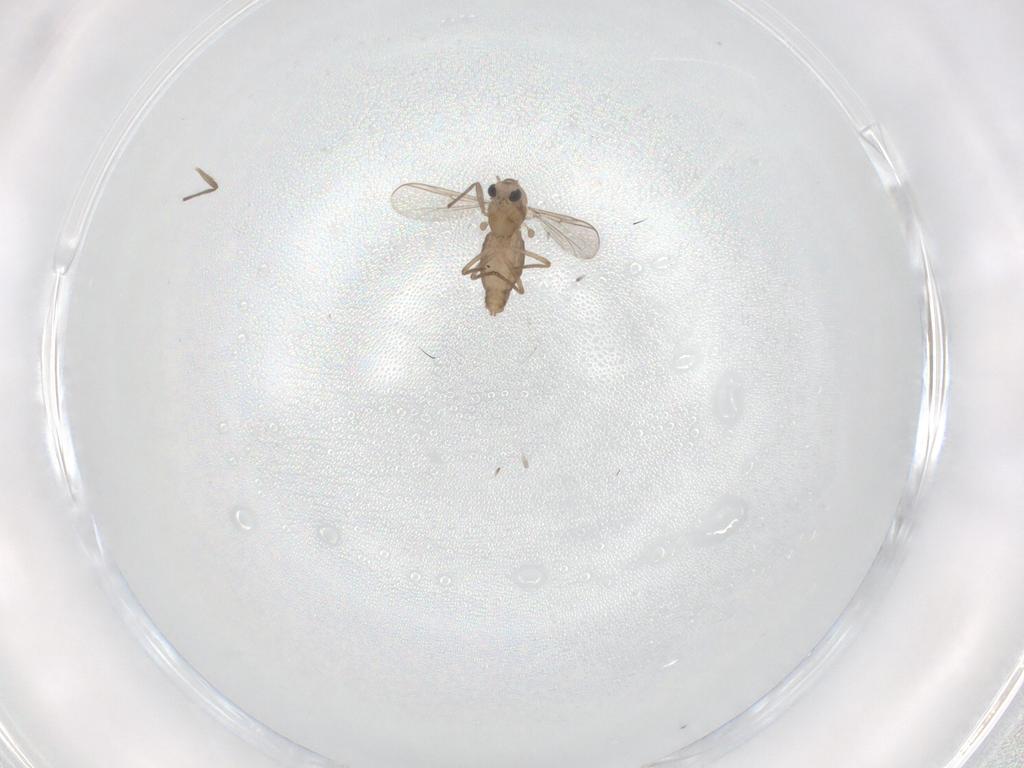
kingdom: Animalia
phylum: Arthropoda
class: Insecta
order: Diptera
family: Chironomidae
